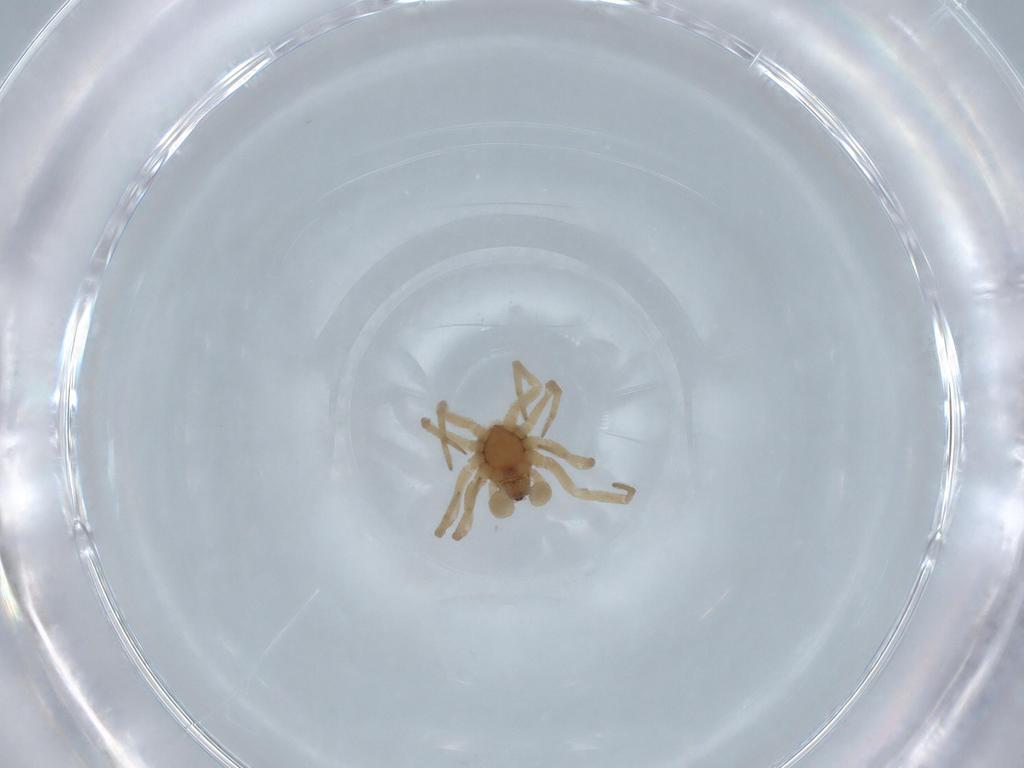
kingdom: Animalia
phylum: Arthropoda
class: Arachnida
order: Araneae
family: Dictynidae
